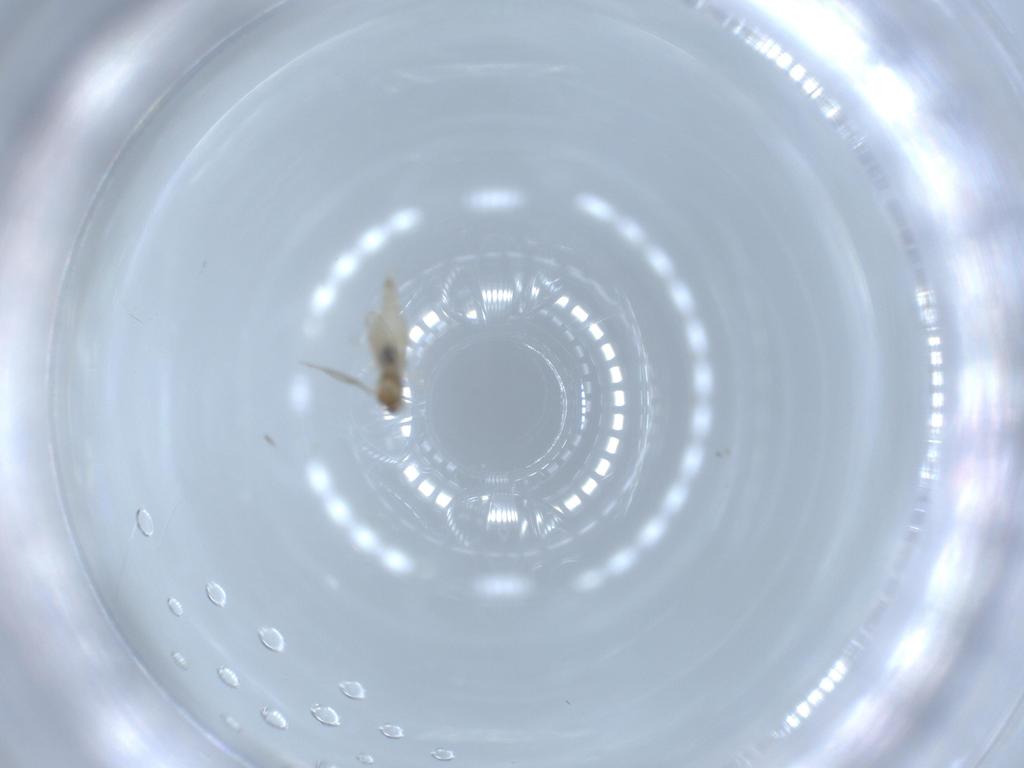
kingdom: Animalia
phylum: Arthropoda
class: Insecta
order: Diptera
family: Cecidomyiidae
